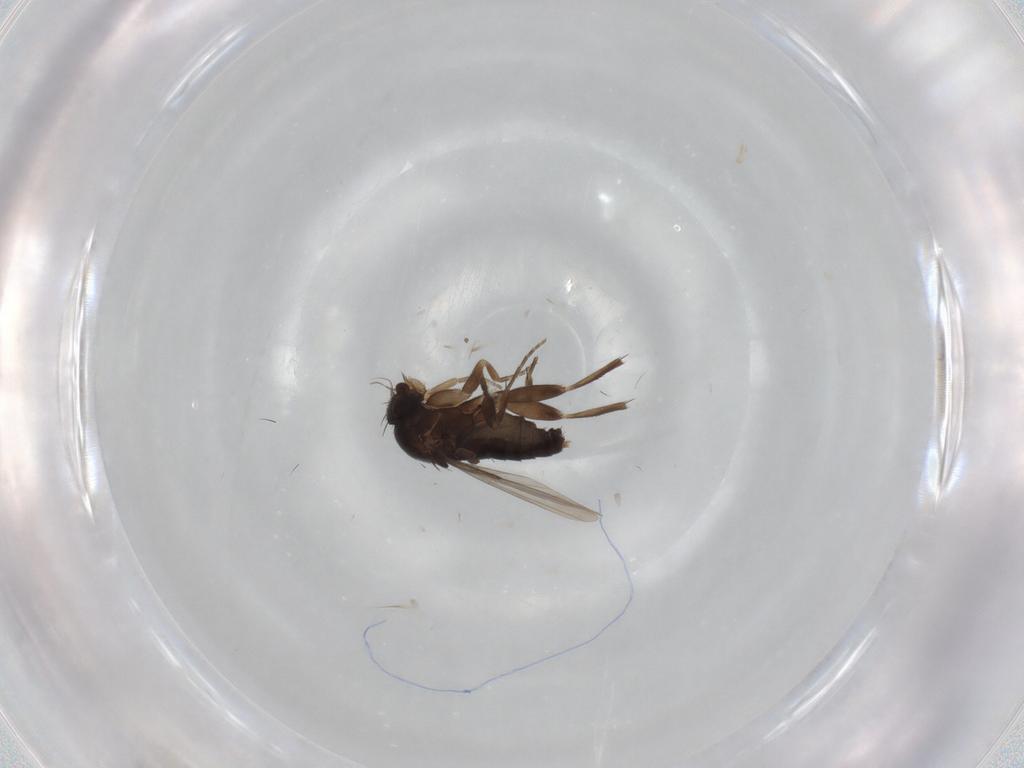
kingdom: Animalia
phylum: Arthropoda
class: Insecta
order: Diptera
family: Phoridae
